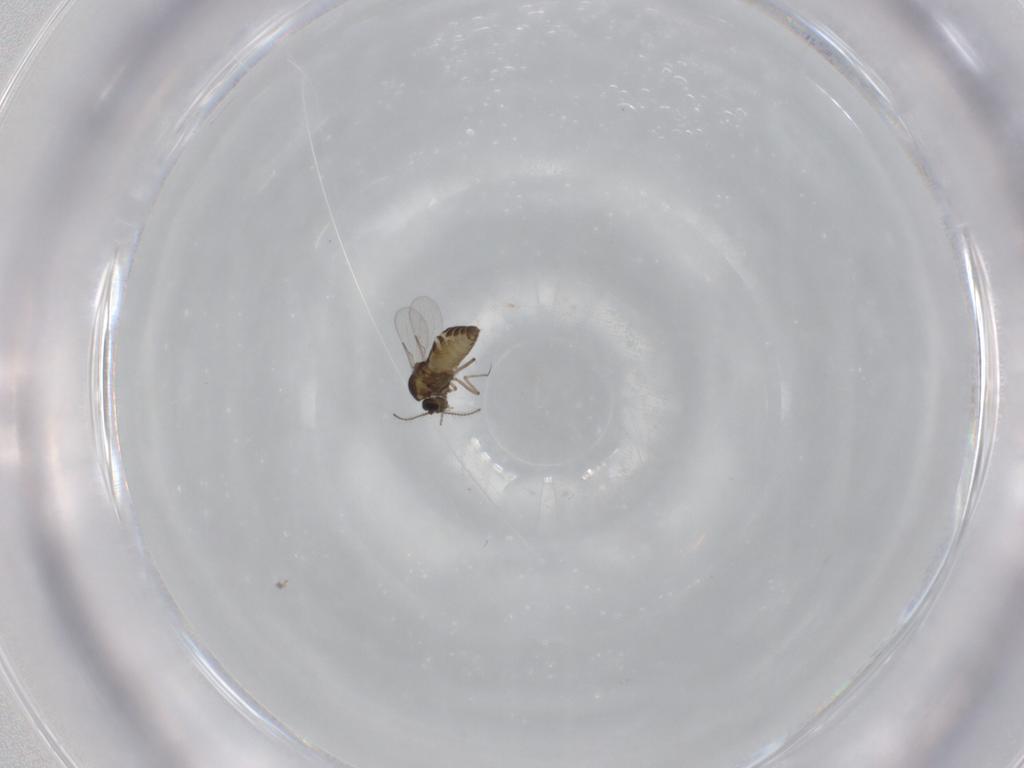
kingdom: Animalia
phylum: Arthropoda
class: Insecta
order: Diptera
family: Ceratopogonidae
